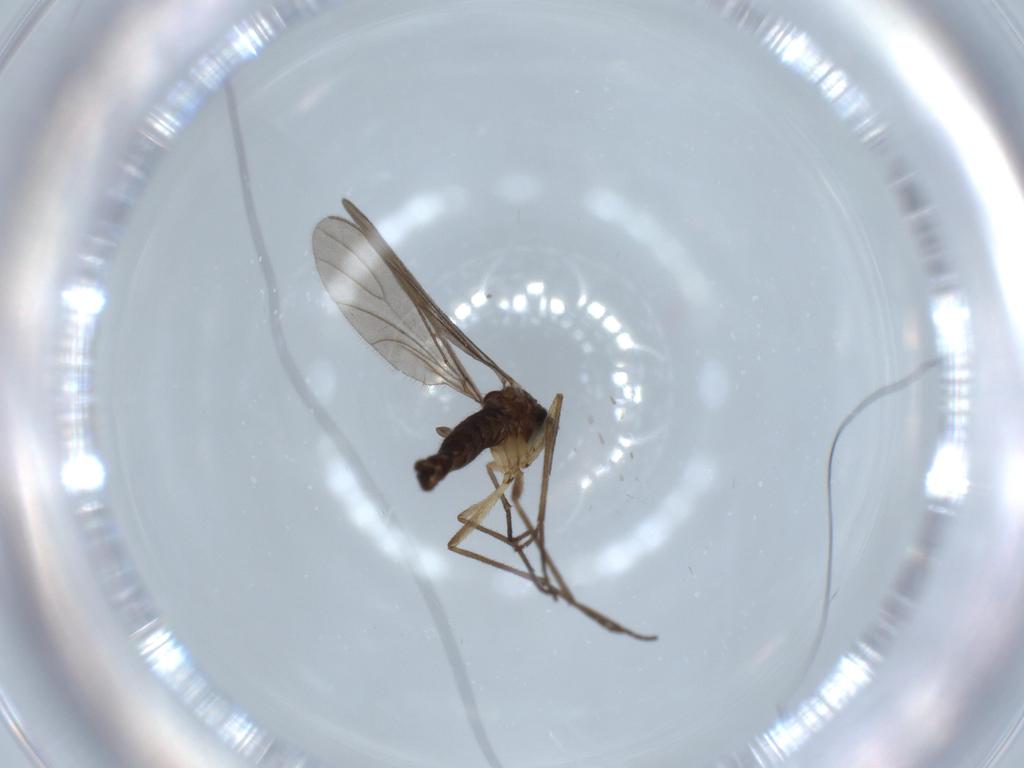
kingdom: Animalia
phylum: Arthropoda
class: Insecta
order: Diptera
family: Sciaridae
